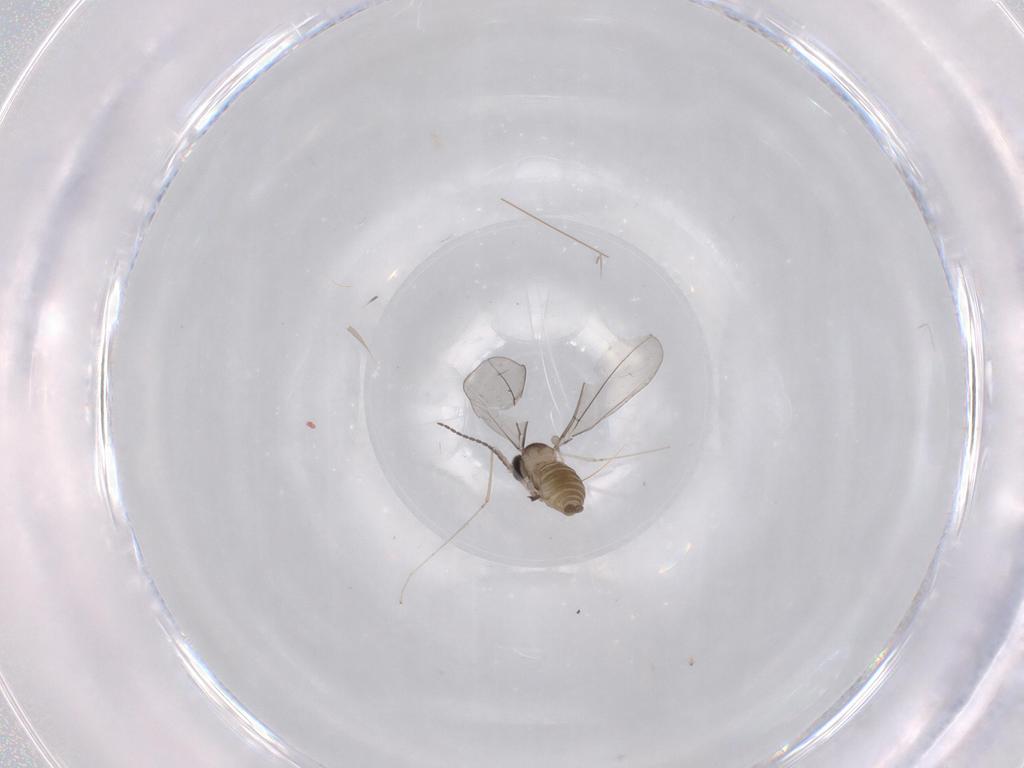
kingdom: Animalia
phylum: Arthropoda
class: Insecta
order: Diptera
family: Cecidomyiidae
